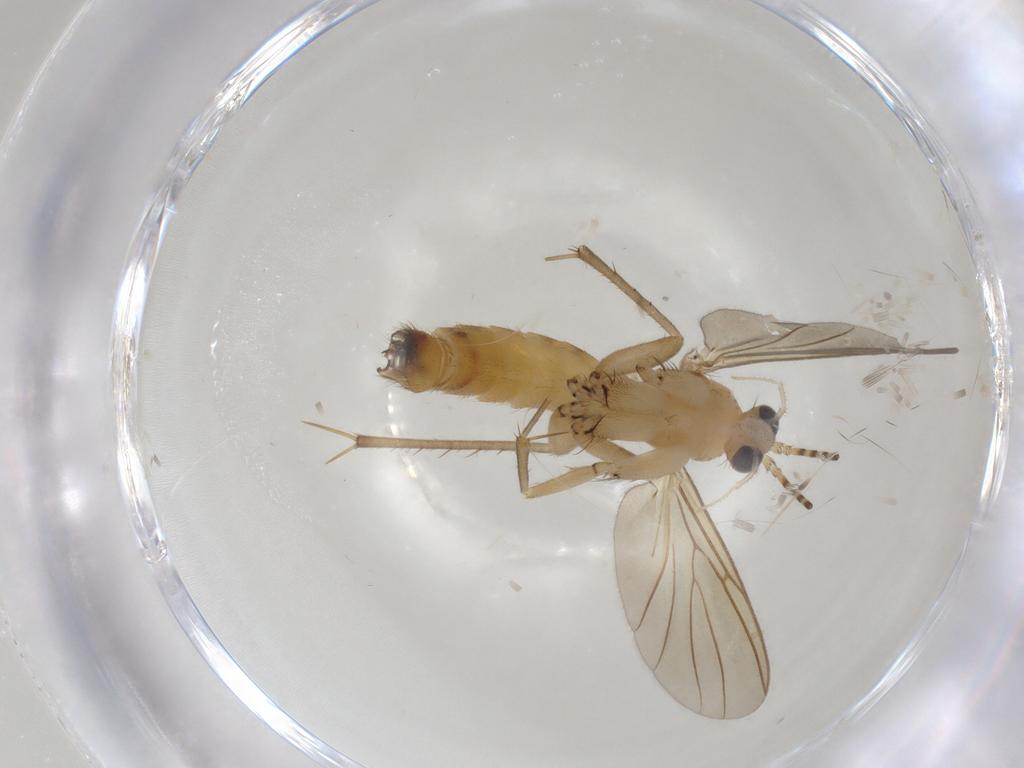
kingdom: Animalia
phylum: Arthropoda
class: Insecta
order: Diptera
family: Mycetophilidae
